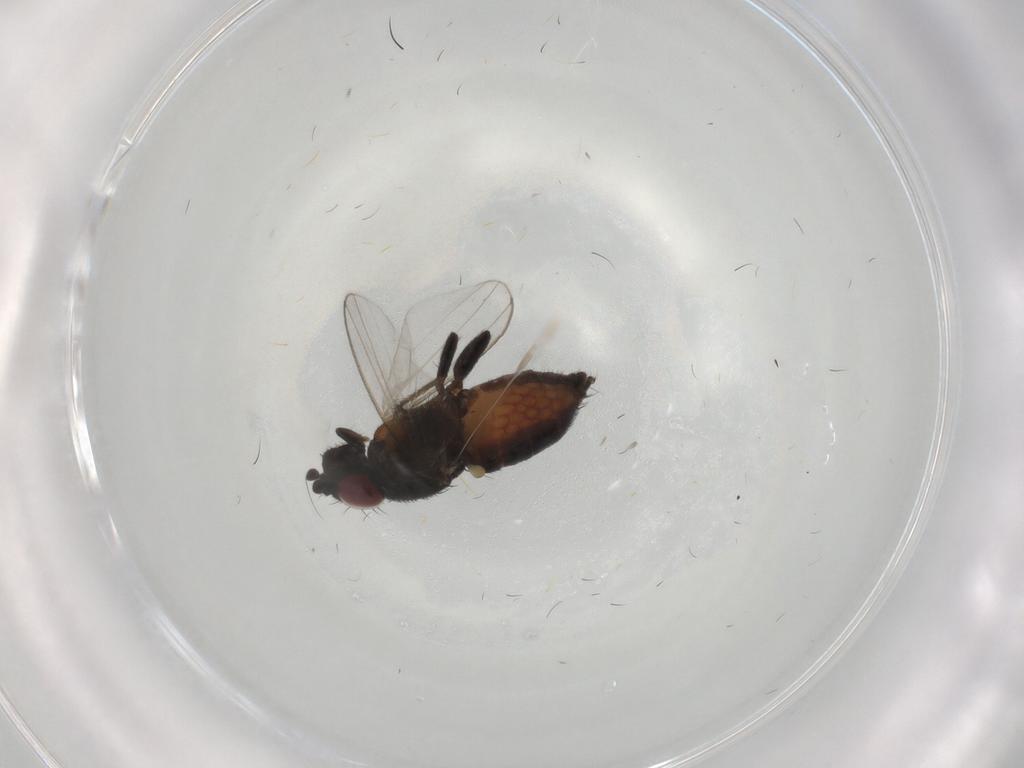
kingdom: Animalia
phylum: Arthropoda
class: Insecta
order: Diptera
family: Milichiidae
